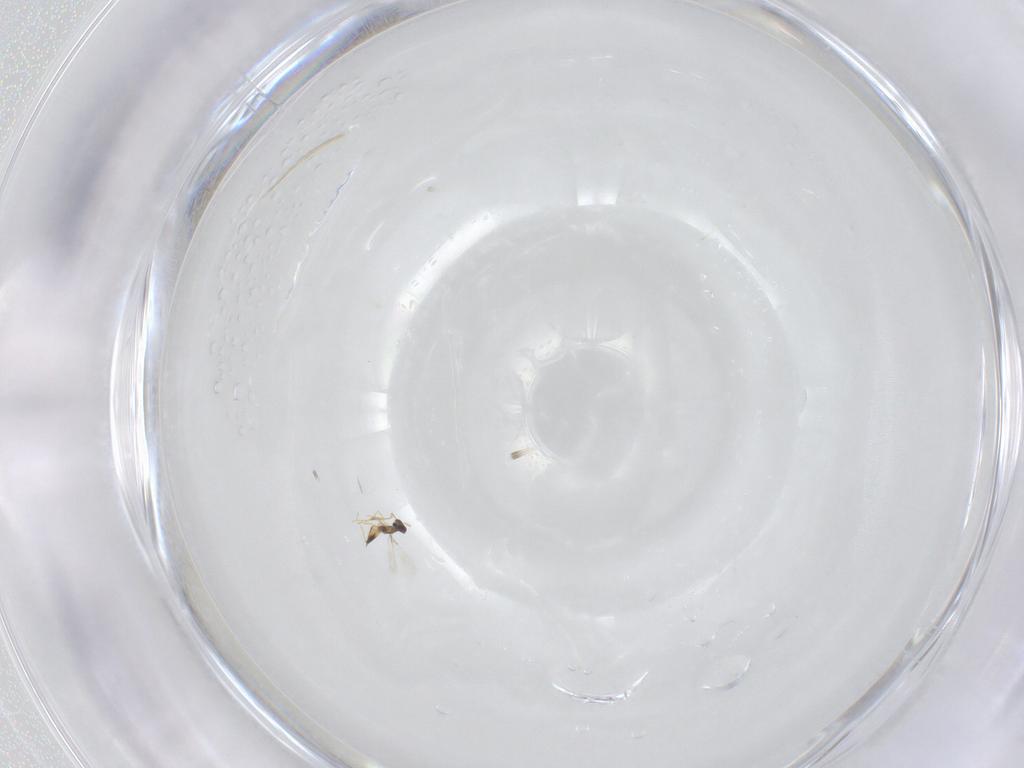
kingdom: Animalia
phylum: Arthropoda
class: Insecta
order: Hymenoptera
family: Mymaridae
